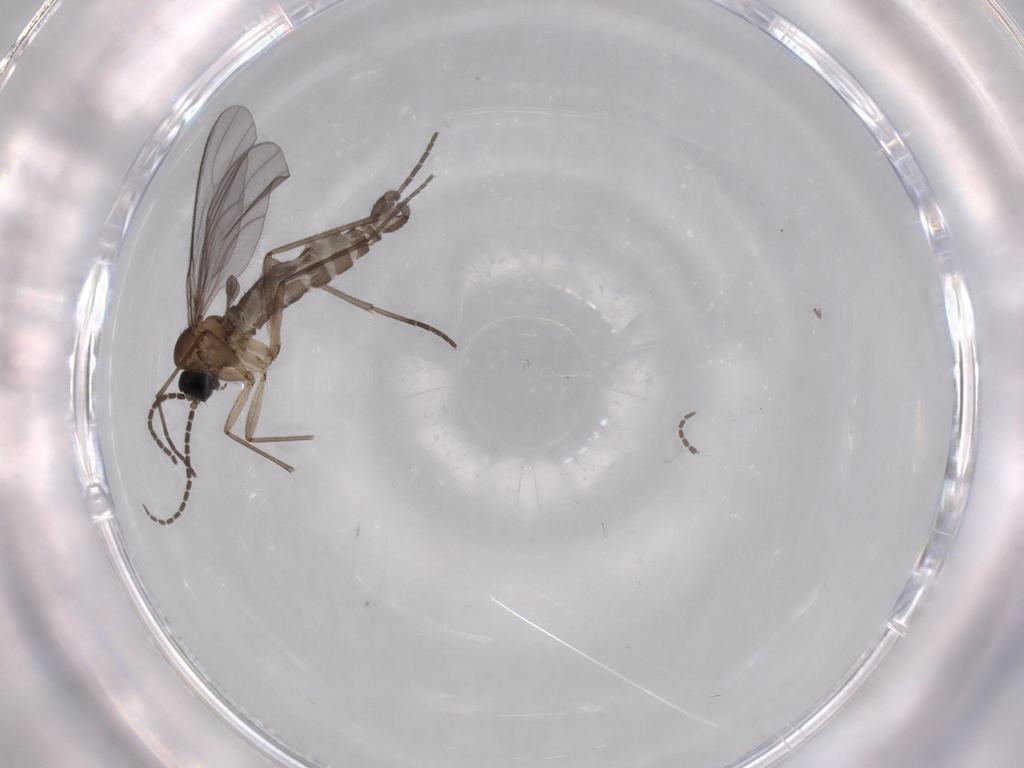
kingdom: Animalia
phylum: Arthropoda
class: Insecta
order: Diptera
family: Sciaridae
